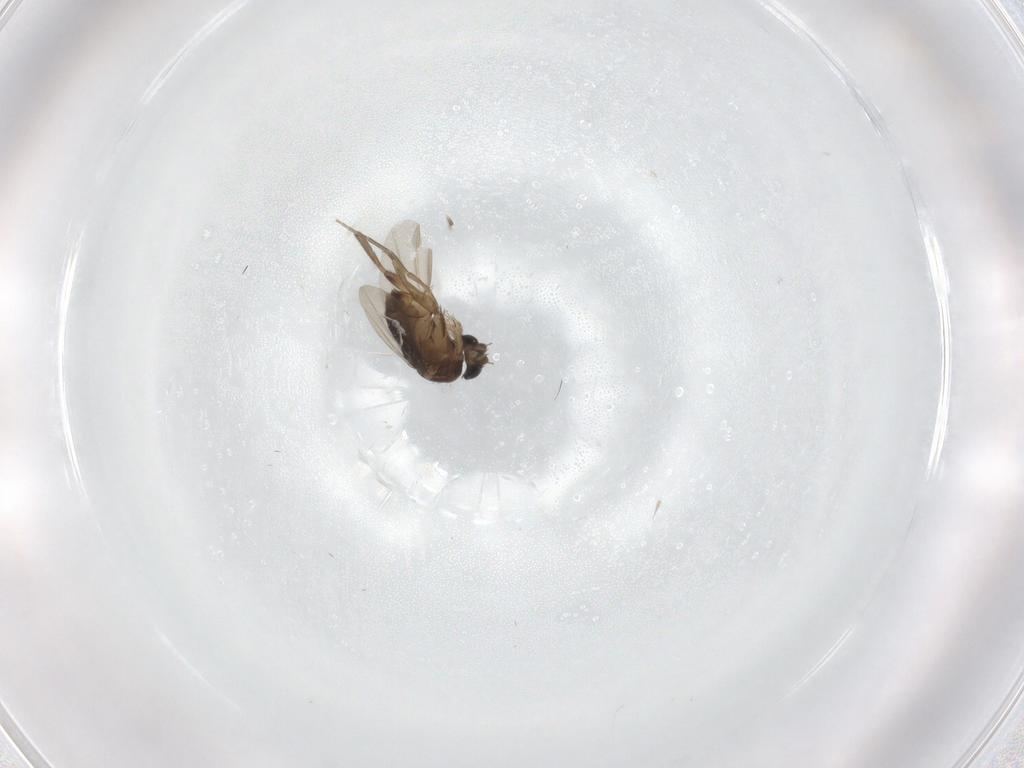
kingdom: Animalia
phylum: Arthropoda
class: Insecta
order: Diptera
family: Phoridae
